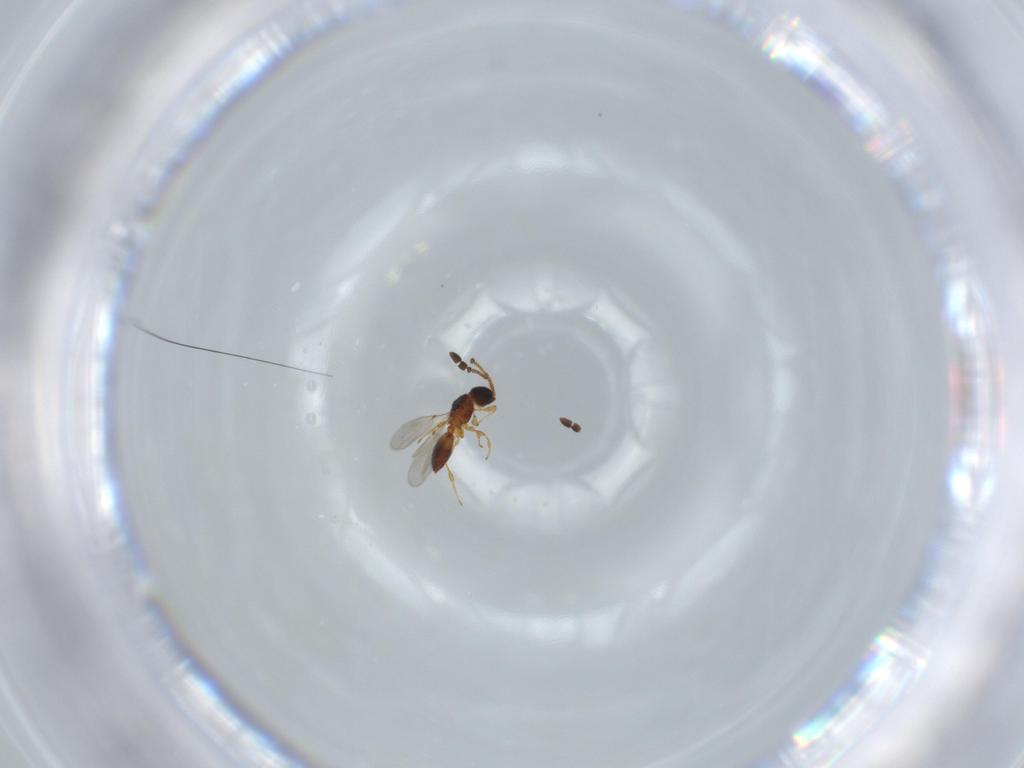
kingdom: Animalia
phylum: Arthropoda
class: Insecta
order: Hymenoptera
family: Diapriidae
